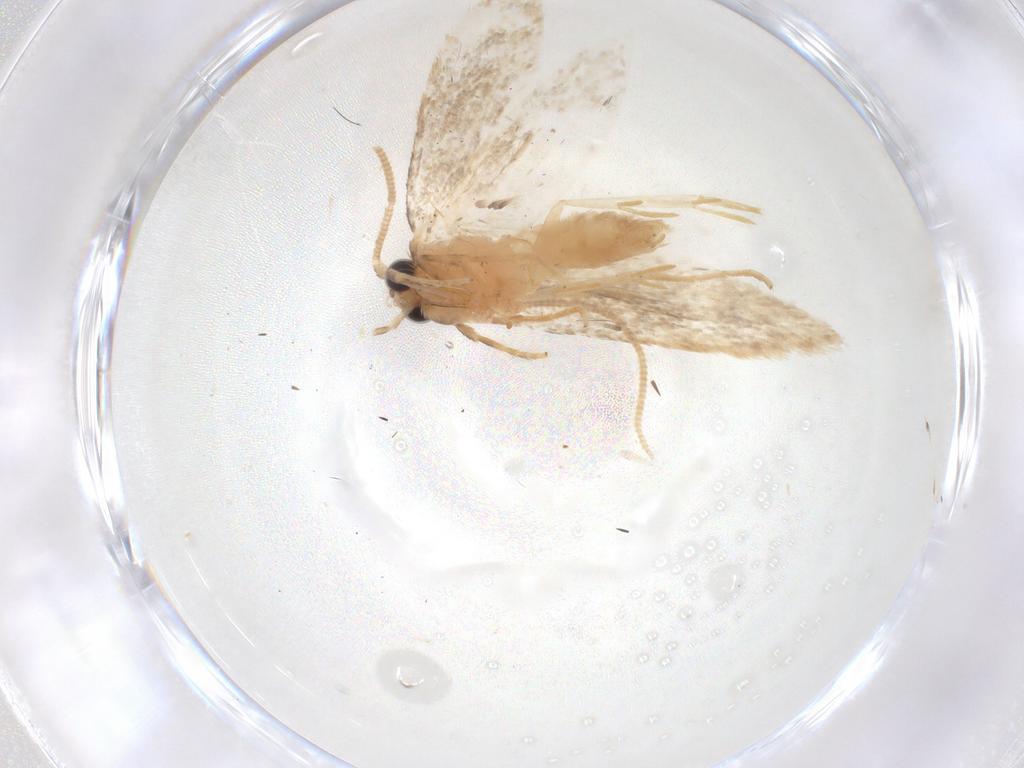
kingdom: Animalia
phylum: Arthropoda
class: Insecta
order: Lepidoptera
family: Tineidae
